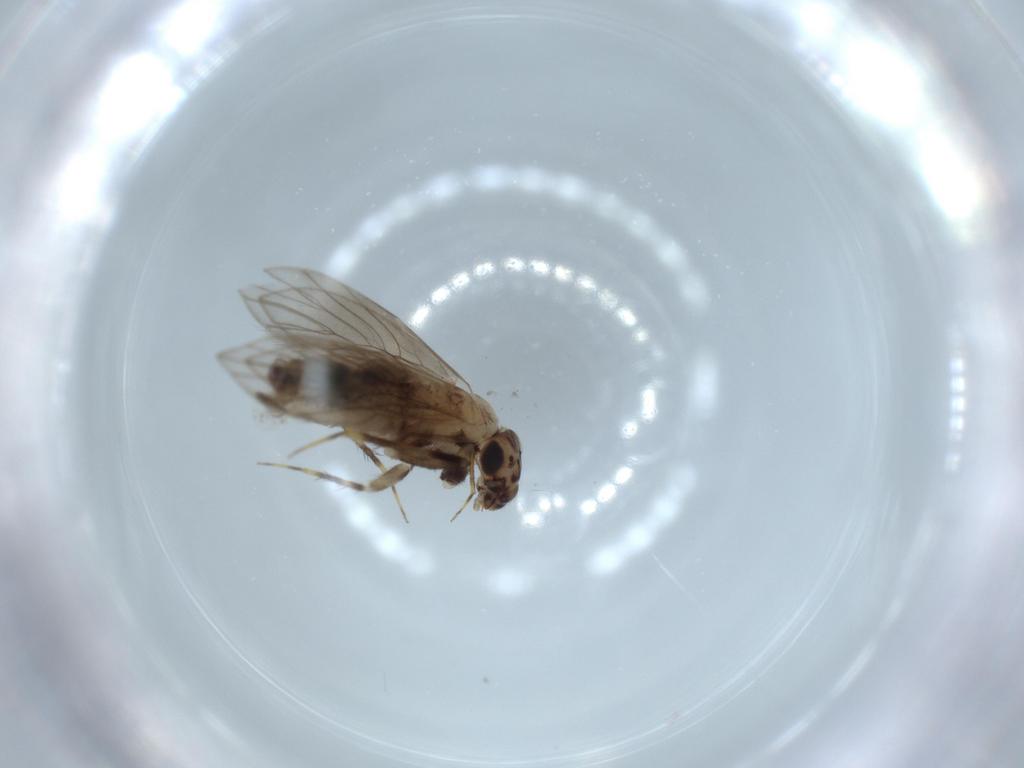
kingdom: Animalia
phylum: Arthropoda
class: Insecta
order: Psocodea
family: Lepidopsocidae
